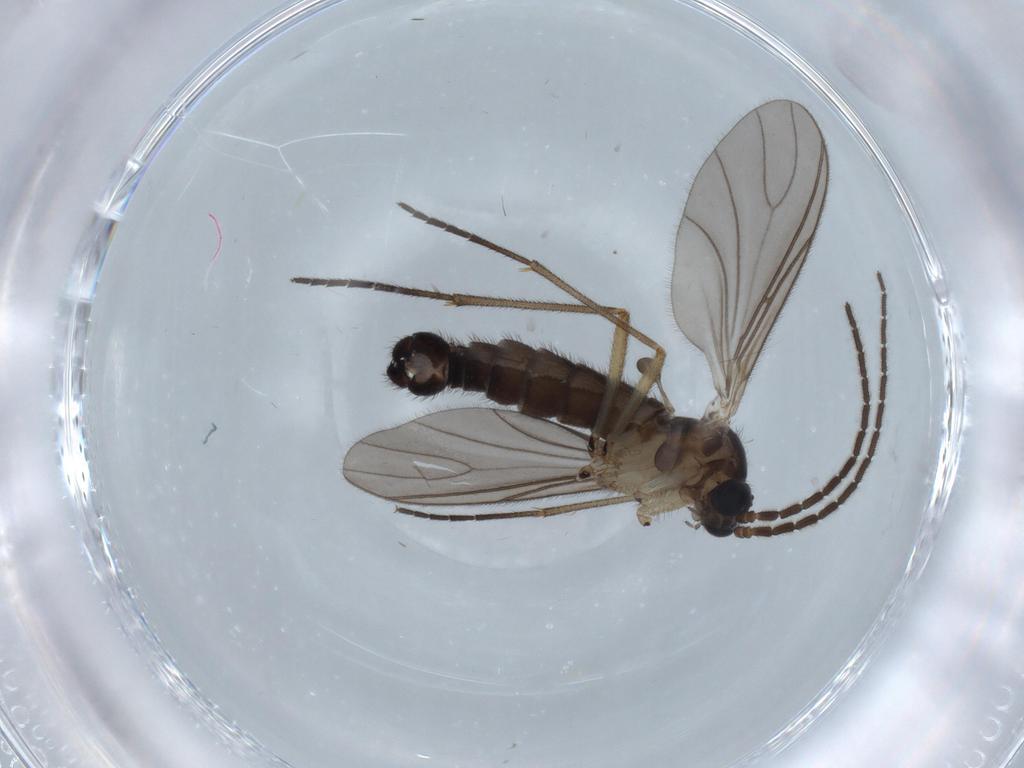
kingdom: Animalia
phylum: Arthropoda
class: Insecta
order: Diptera
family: Sciaridae
